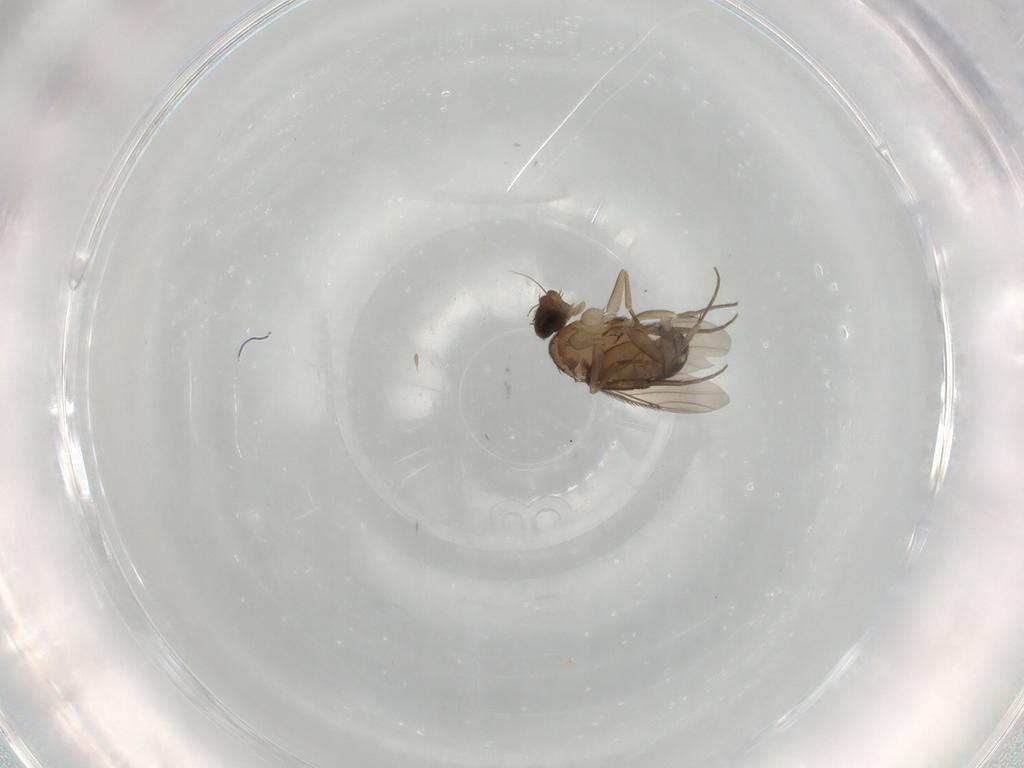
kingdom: Animalia
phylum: Arthropoda
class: Insecta
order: Diptera
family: Phoridae
